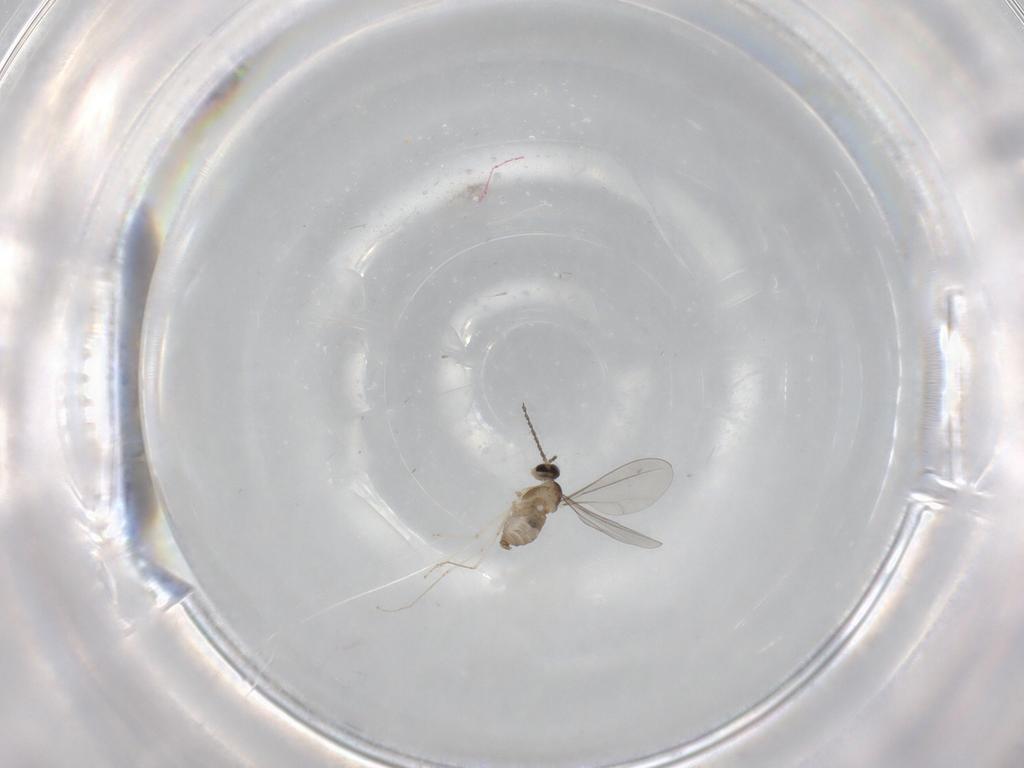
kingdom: Animalia
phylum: Arthropoda
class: Insecta
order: Diptera
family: Cecidomyiidae
